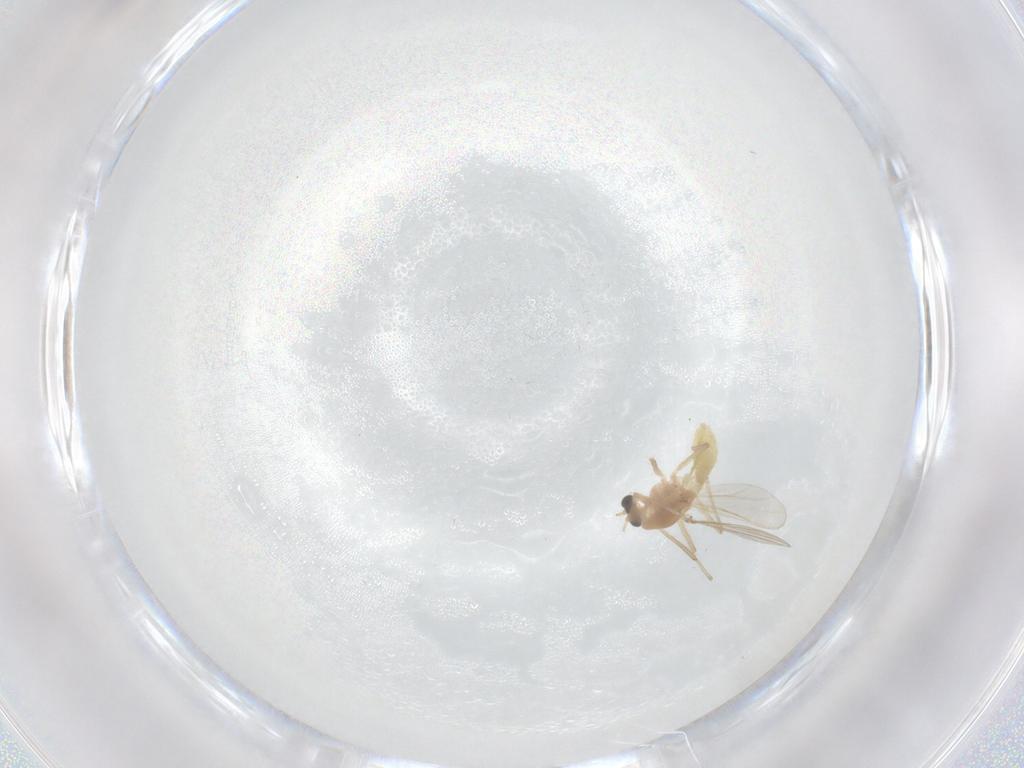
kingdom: Animalia
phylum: Arthropoda
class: Insecta
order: Diptera
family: Chironomidae
